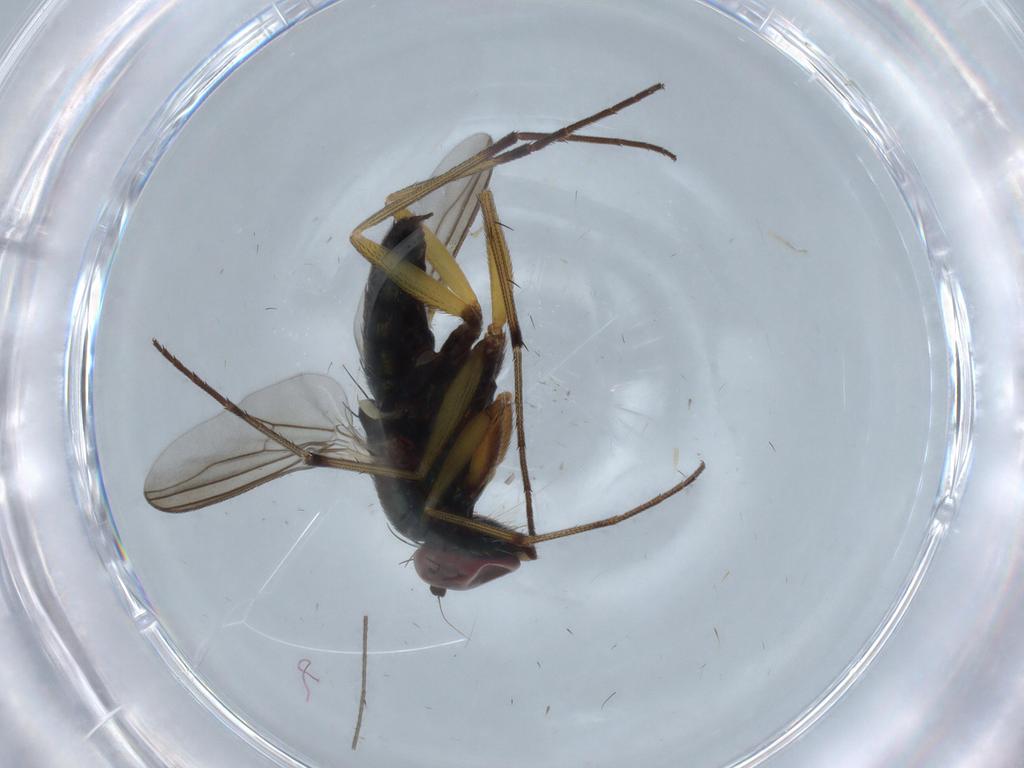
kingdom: Animalia
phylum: Arthropoda
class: Insecta
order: Diptera
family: Dolichopodidae
